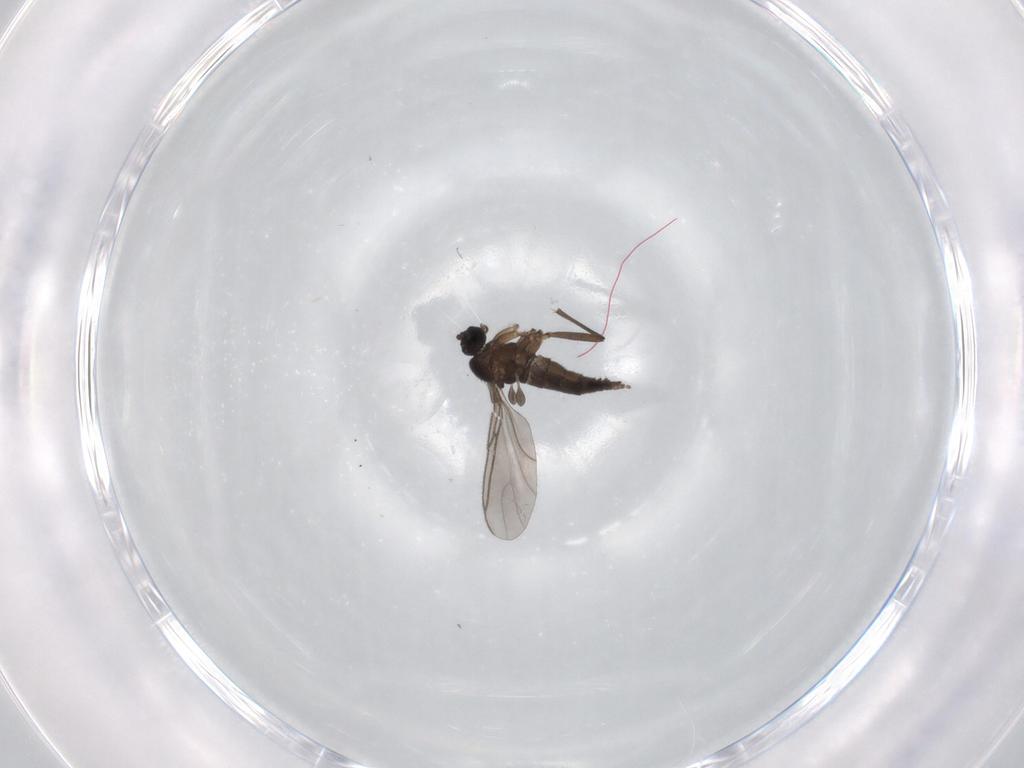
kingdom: Animalia
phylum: Arthropoda
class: Insecta
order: Diptera
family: Sciaridae
